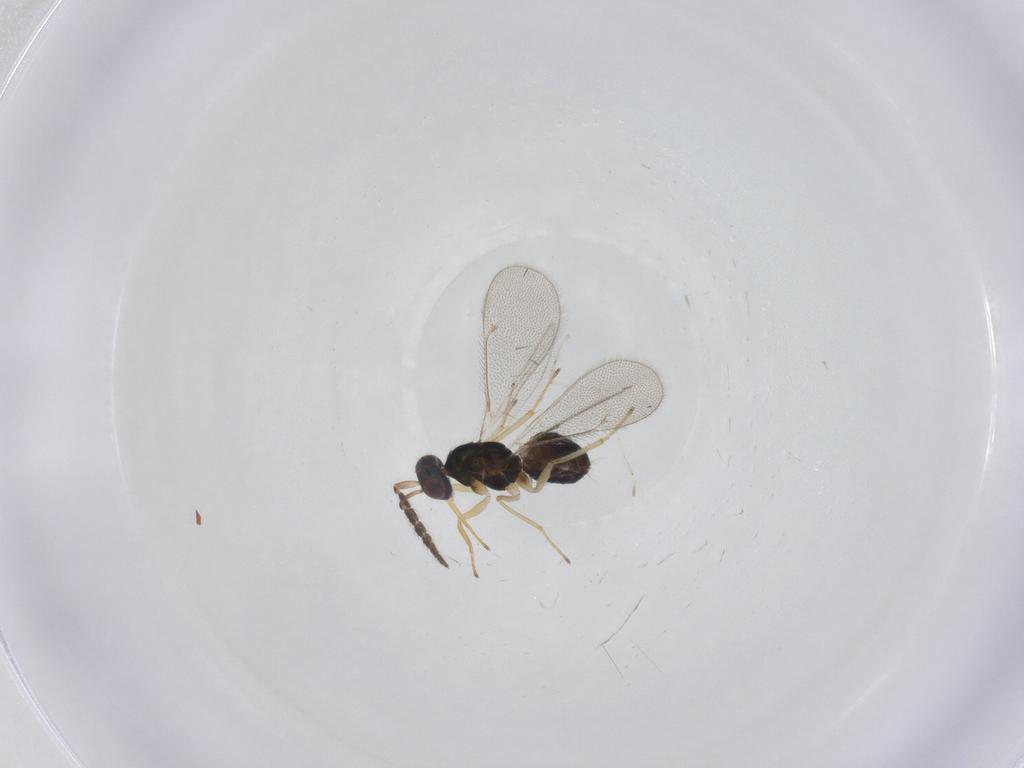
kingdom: Animalia
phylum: Arthropoda
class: Insecta
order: Hymenoptera
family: Eulophidae
